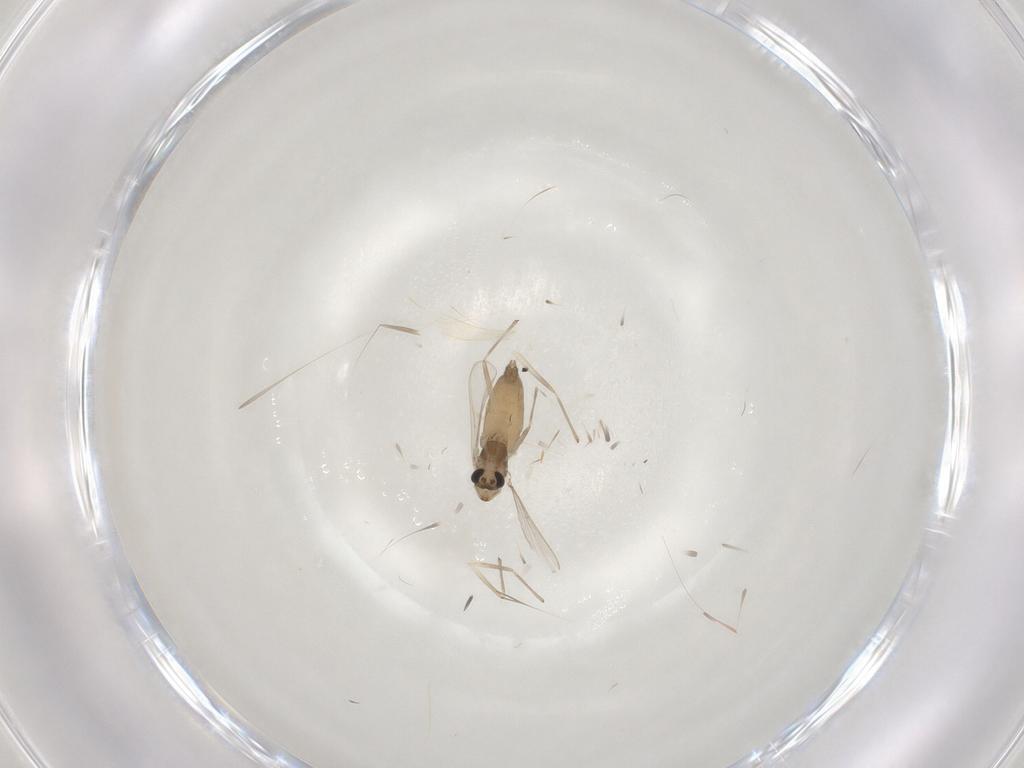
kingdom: Animalia
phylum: Arthropoda
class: Insecta
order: Diptera
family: Chironomidae
